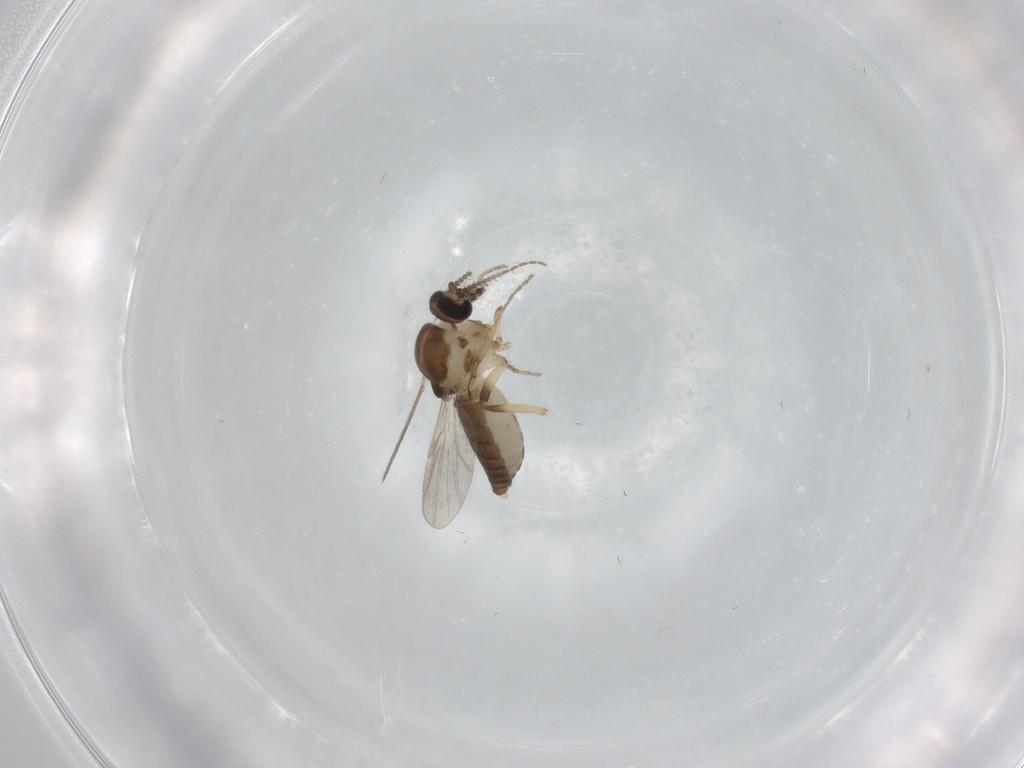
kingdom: Animalia
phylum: Arthropoda
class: Insecta
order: Diptera
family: Ceratopogonidae
